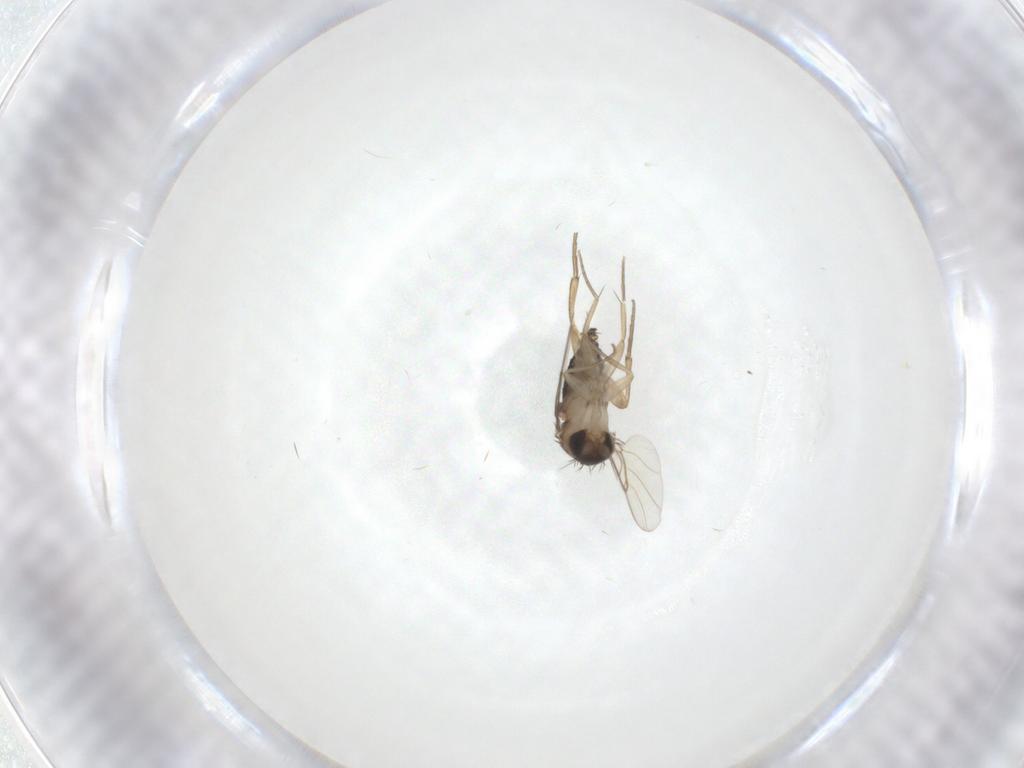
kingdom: Animalia
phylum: Arthropoda
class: Insecta
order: Diptera
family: Phoridae
